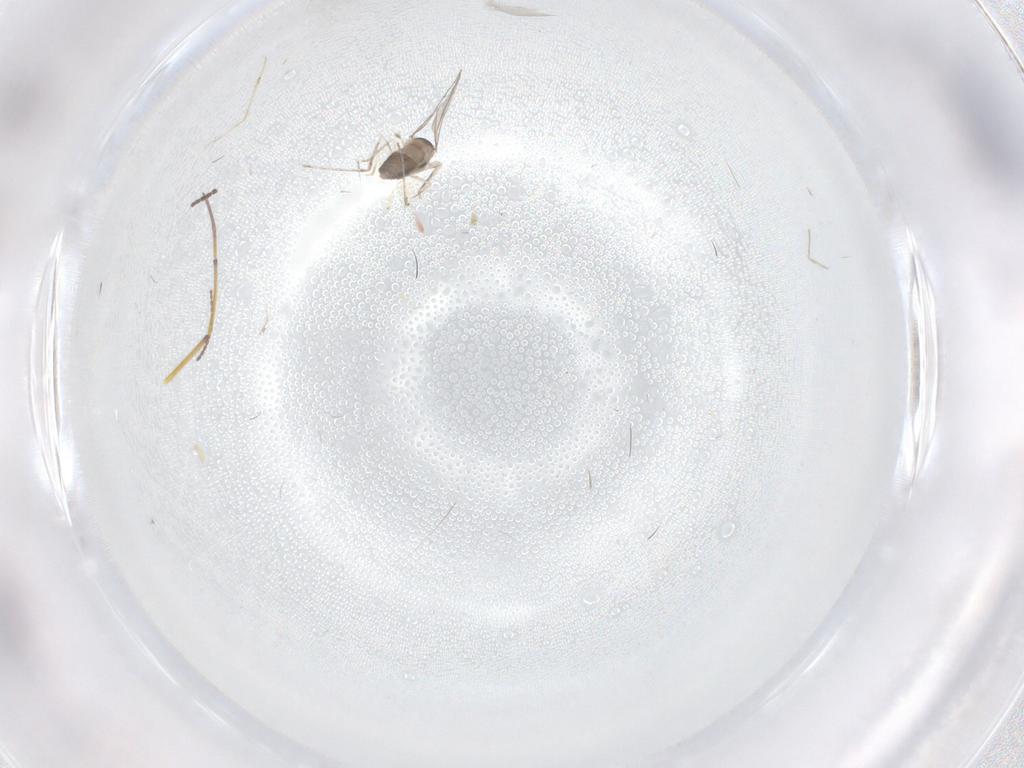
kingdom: Animalia
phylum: Arthropoda
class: Insecta
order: Diptera
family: Cecidomyiidae
